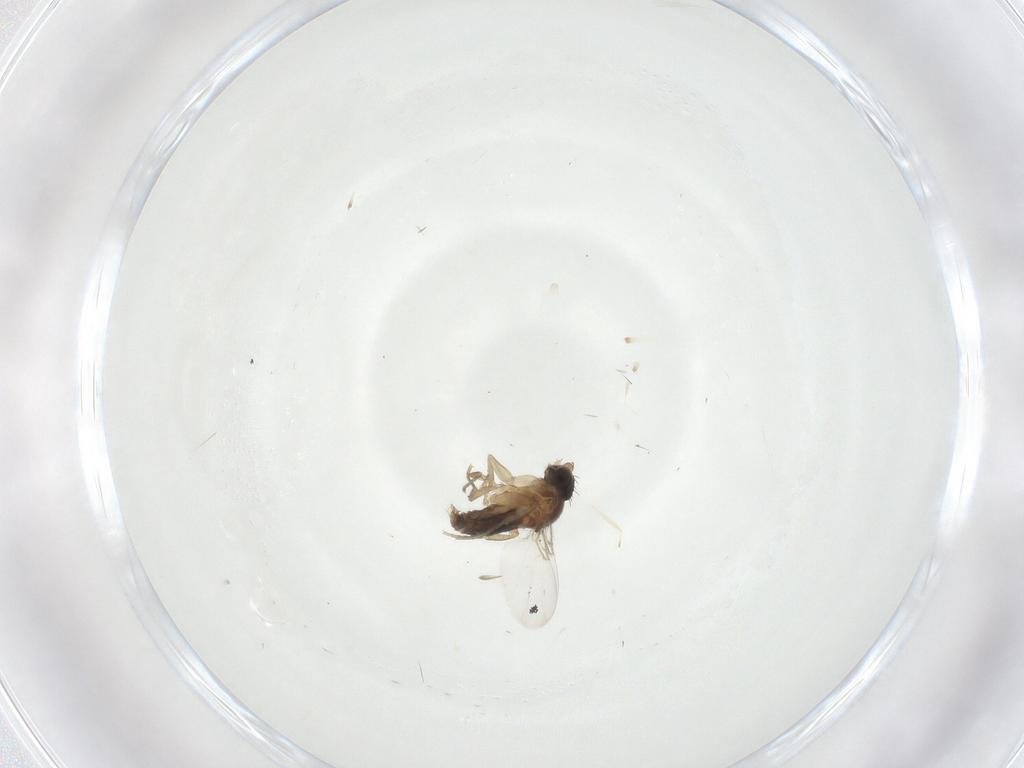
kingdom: Animalia
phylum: Arthropoda
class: Insecta
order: Diptera
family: Phoridae
